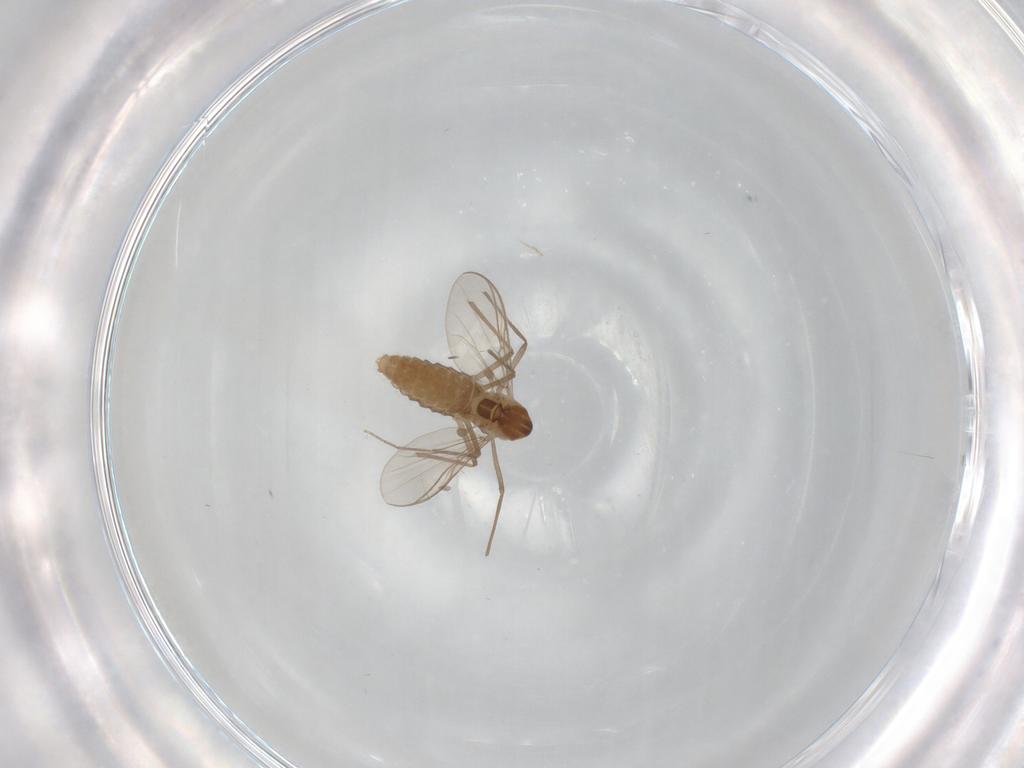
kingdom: Animalia
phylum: Arthropoda
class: Insecta
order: Diptera
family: Chironomidae
